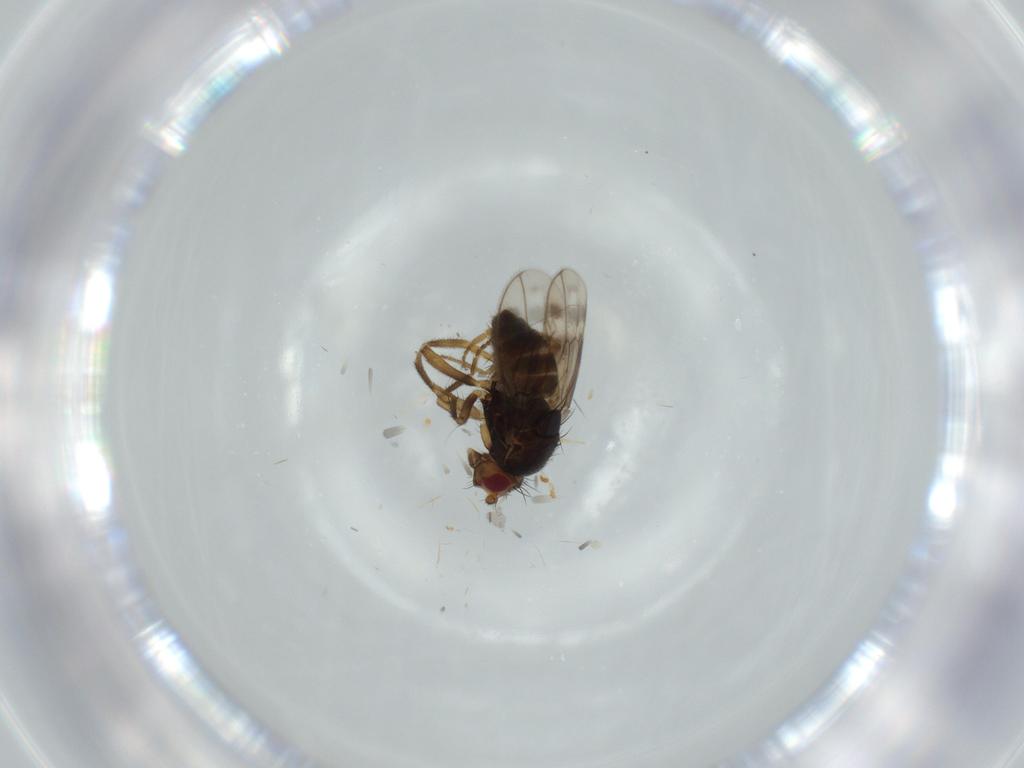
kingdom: Animalia
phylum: Arthropoda
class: Insecta
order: Diptera
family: Sphaeroceridae
